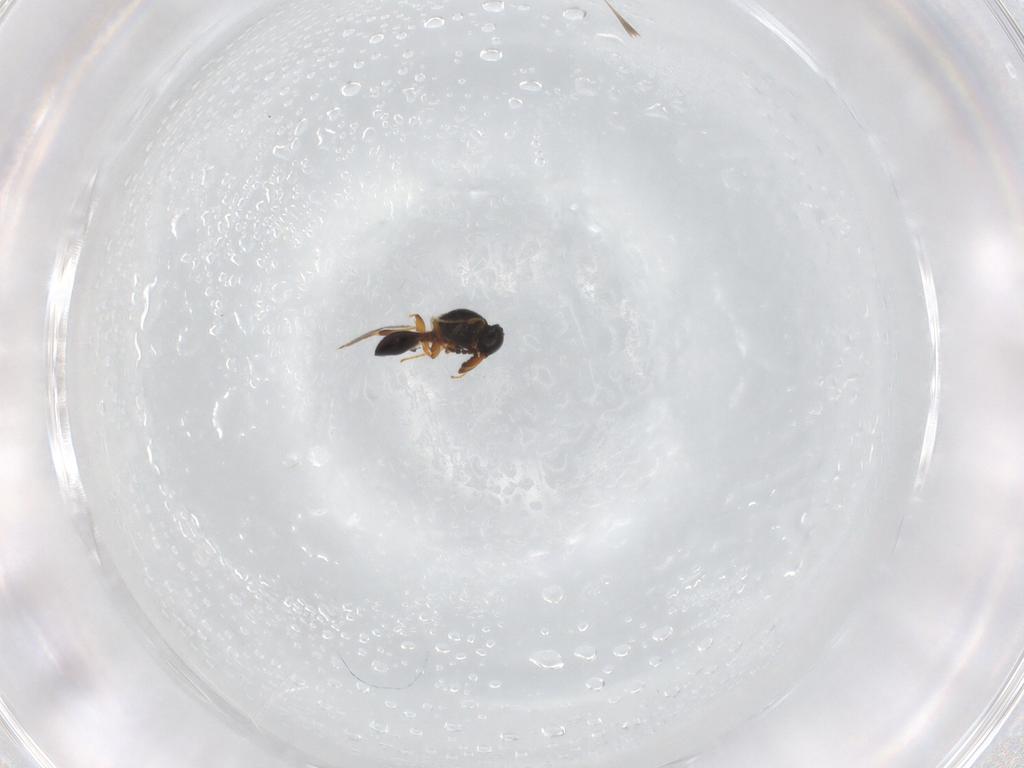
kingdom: Animalia
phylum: Arthropoda
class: Insecta
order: Hymenoptera
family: Platygastridae
